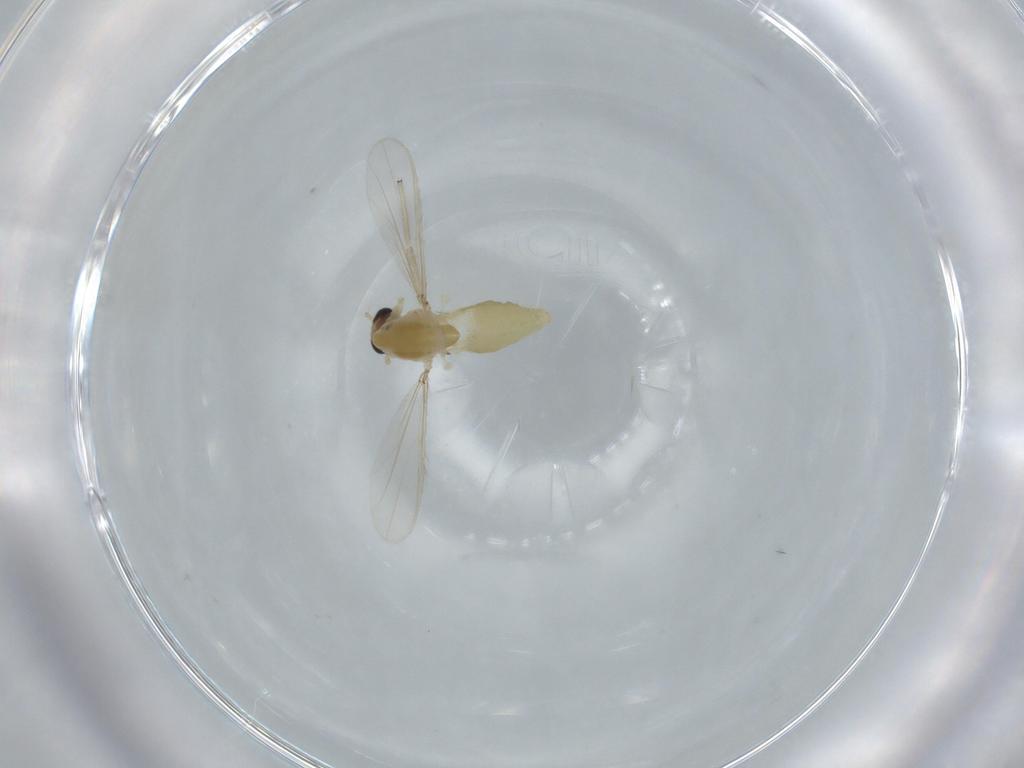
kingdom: Animalia
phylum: Arthropoda
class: Insecta
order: Diptera
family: Chironomidae
